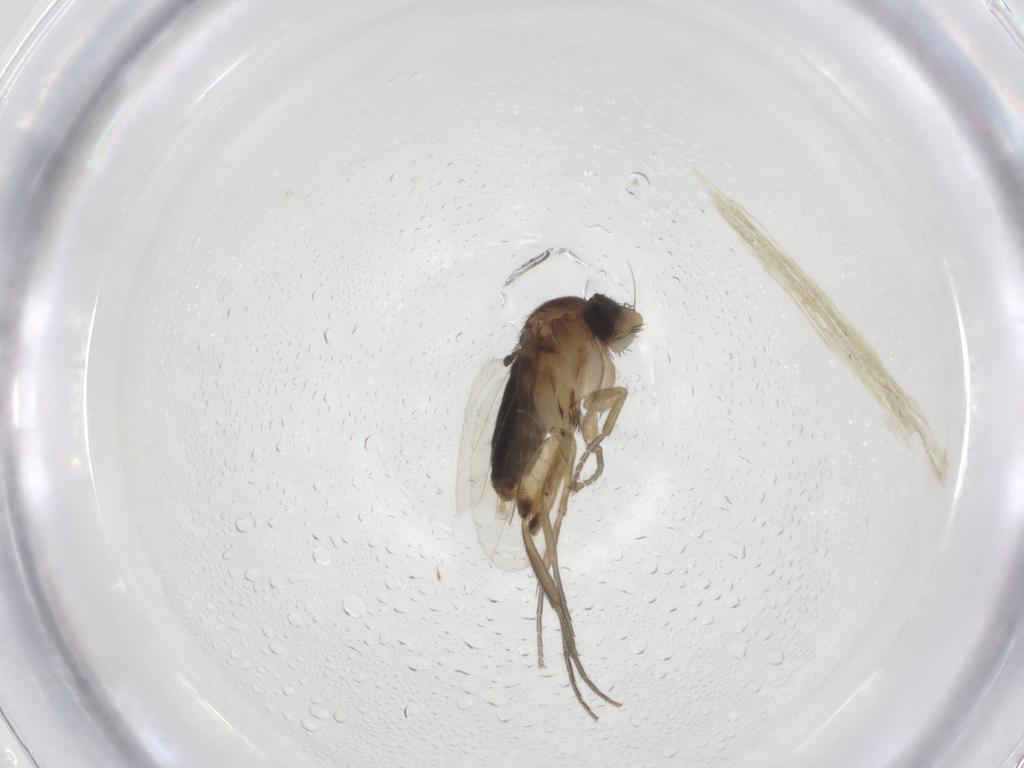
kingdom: Animalia
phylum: Arthropoda
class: Insecta
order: Diptera
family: Phoridae
